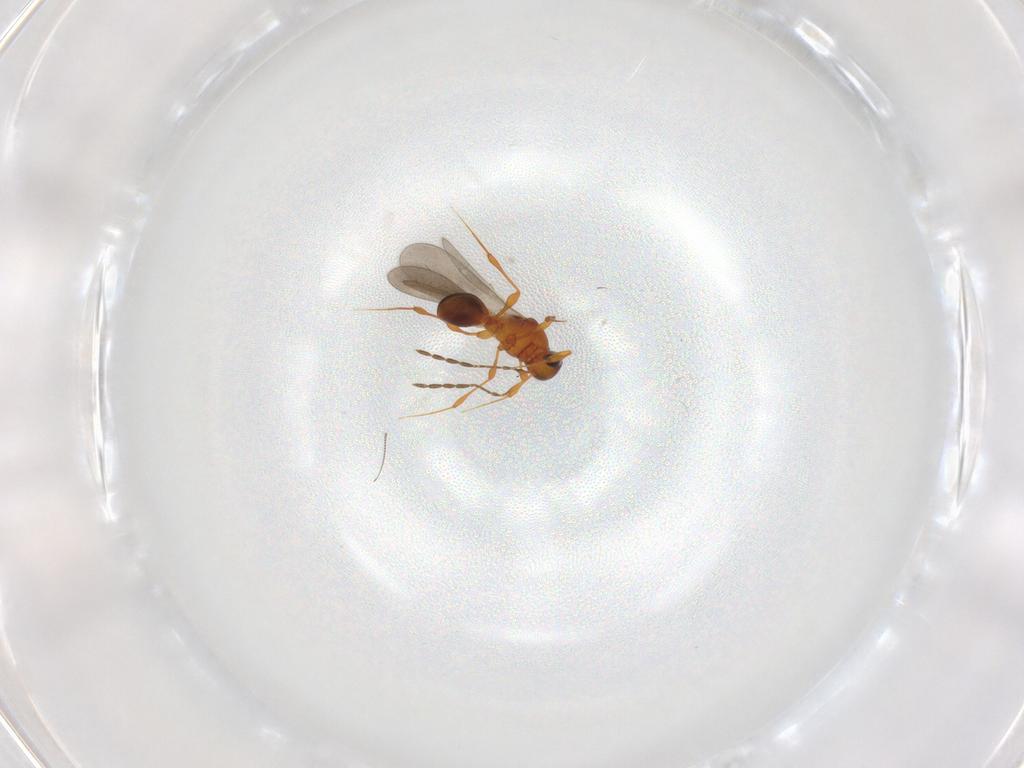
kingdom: Animalia
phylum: Arthropoda
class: Insecta
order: Hymenoptera
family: Platygastridae
